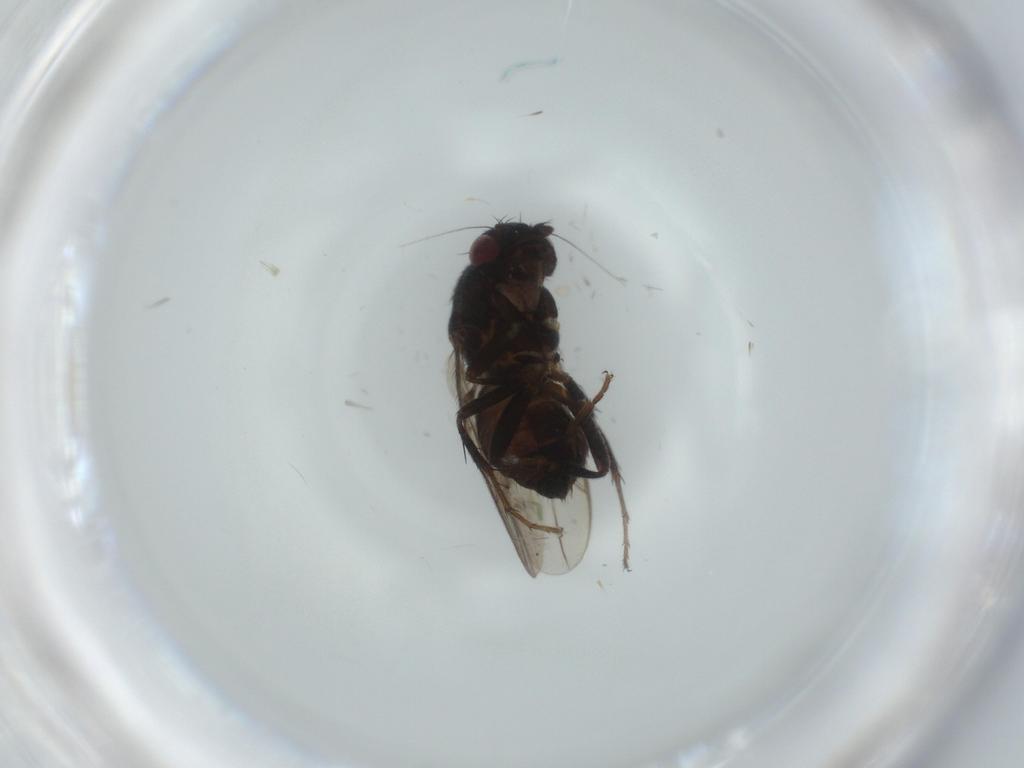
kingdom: Animalia
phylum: Arthropoda
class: Insecta
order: Diptera
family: Sphaeroceridae
